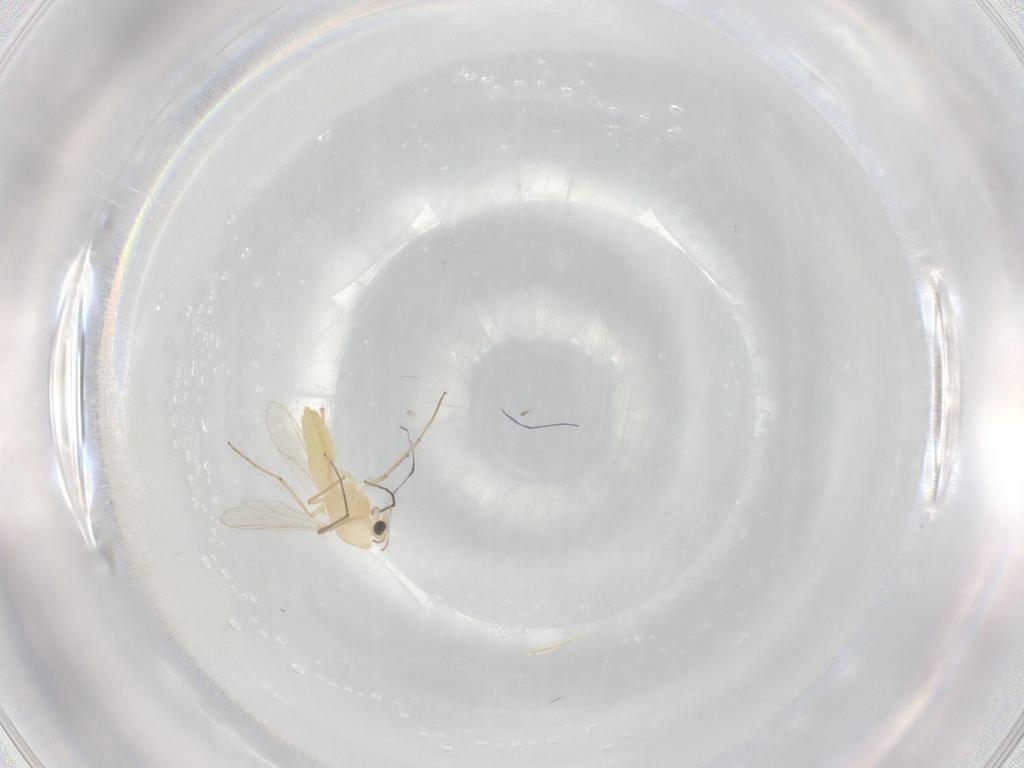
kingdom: Animalia
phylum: Arthropoda
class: Insecta
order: Diptera
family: Chironomidae
